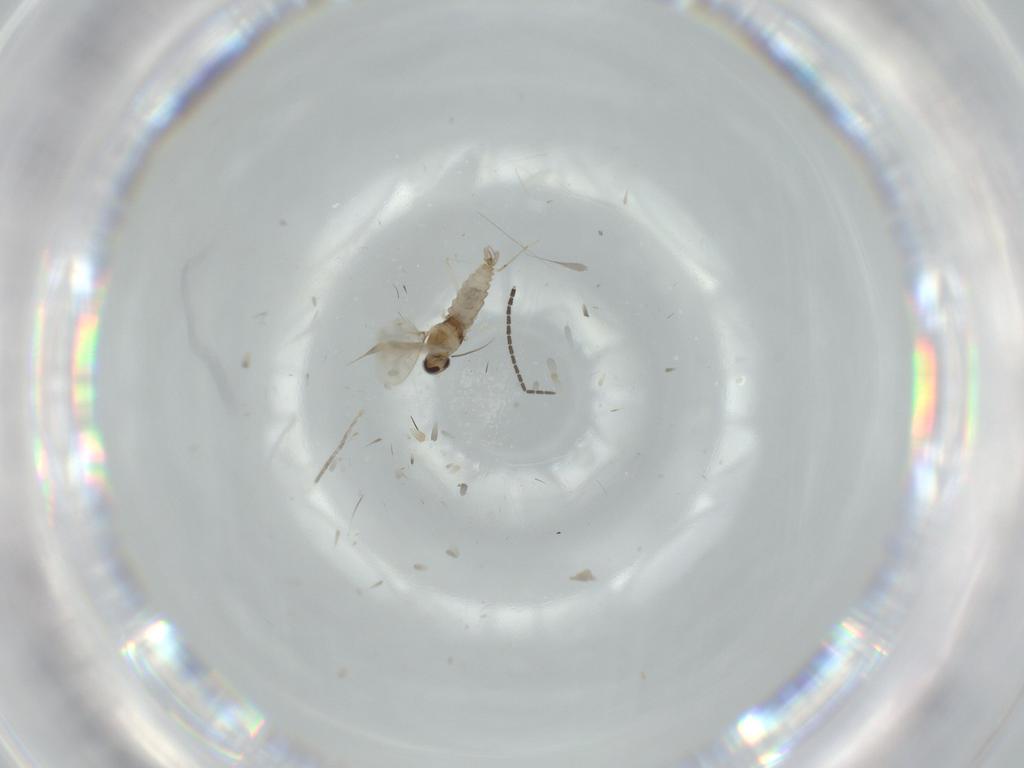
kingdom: Animalia
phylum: Arthropoda
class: Insecta
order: Diptera
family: Cecidomyiidae
